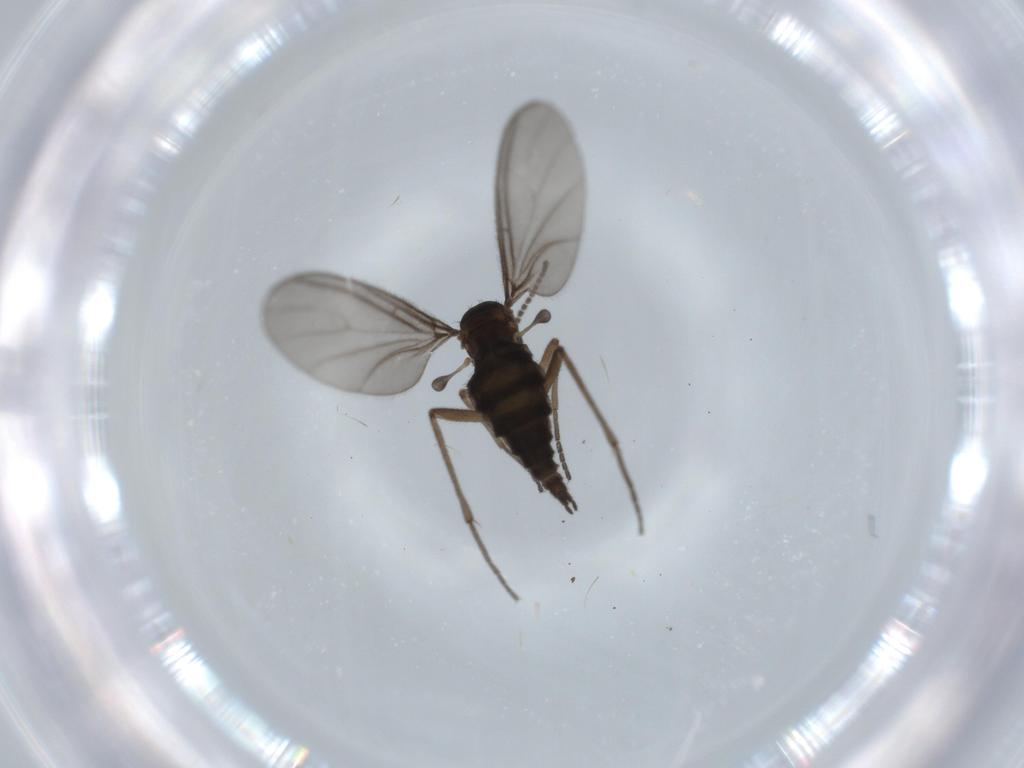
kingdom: Animalia
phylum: Arthropoda
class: Insecta
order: Diptera
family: Sciaridae
